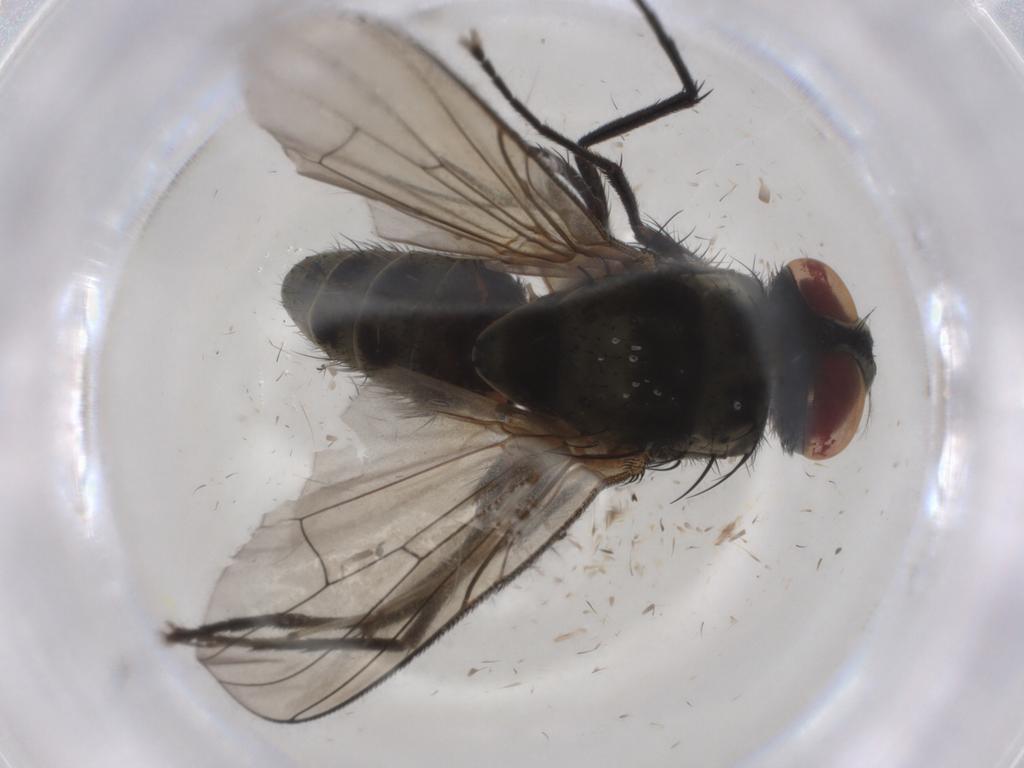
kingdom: Animalia
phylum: Arthropoda
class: Insecta
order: Diptera
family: Muscidae
